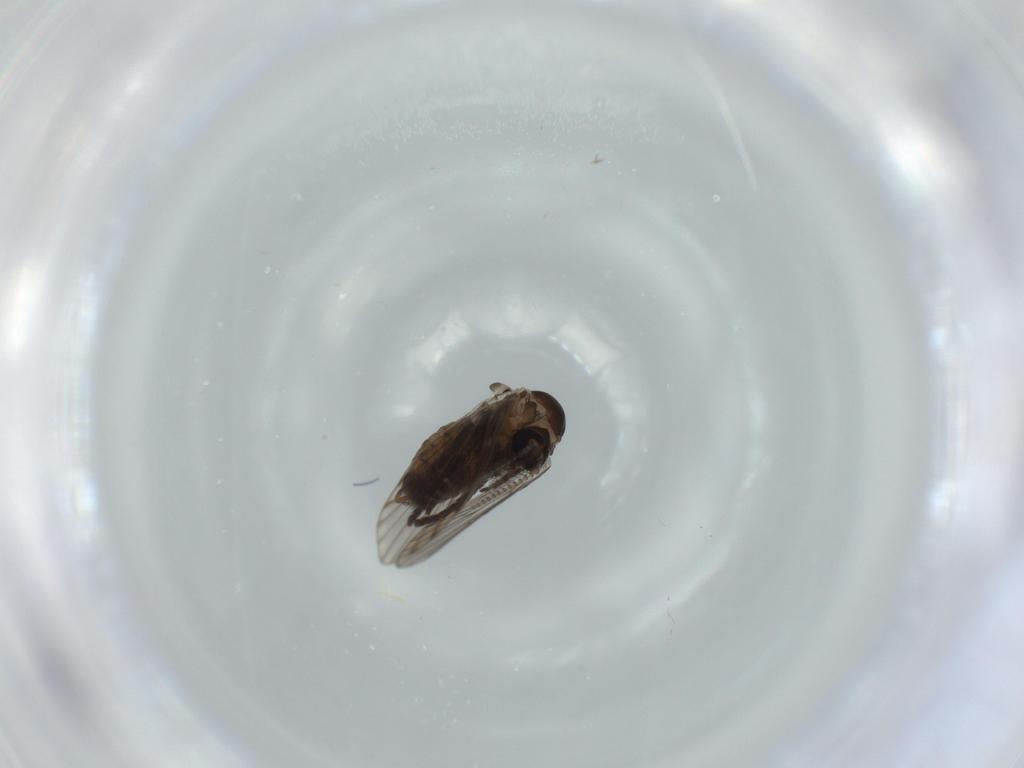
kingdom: Animalia
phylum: Arthropoda
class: Insecta
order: Diptera
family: Psychodidae
